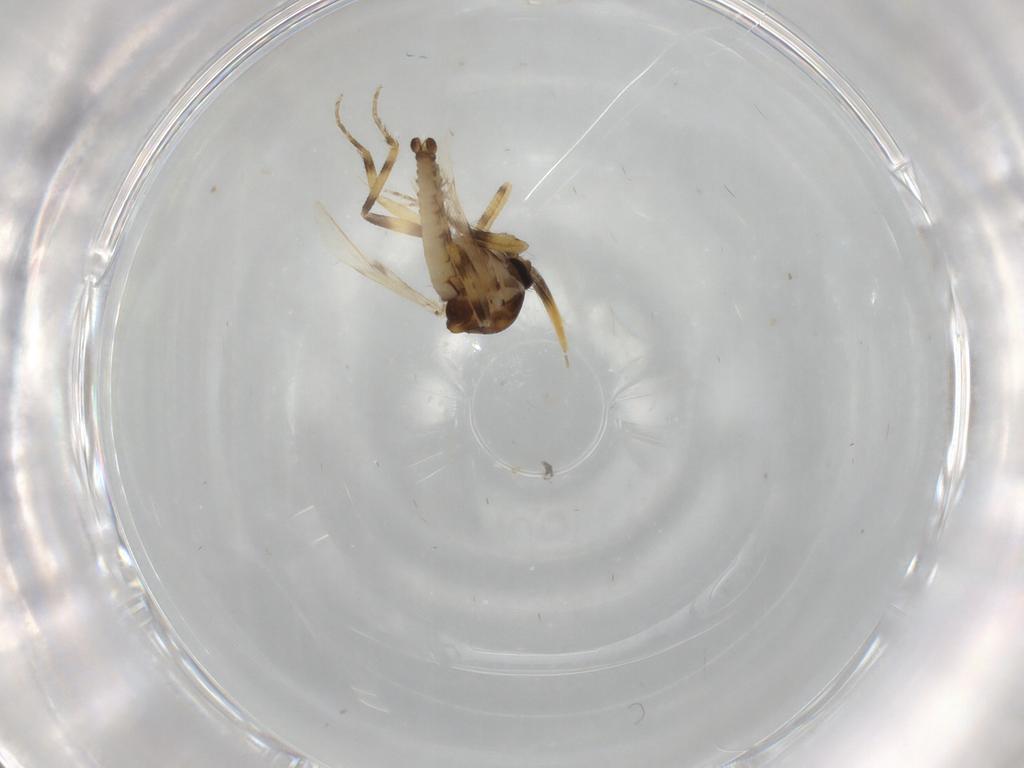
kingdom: Animalia
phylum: Arthropoda
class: Insecta
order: Diptera
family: Ceratopogonidae
